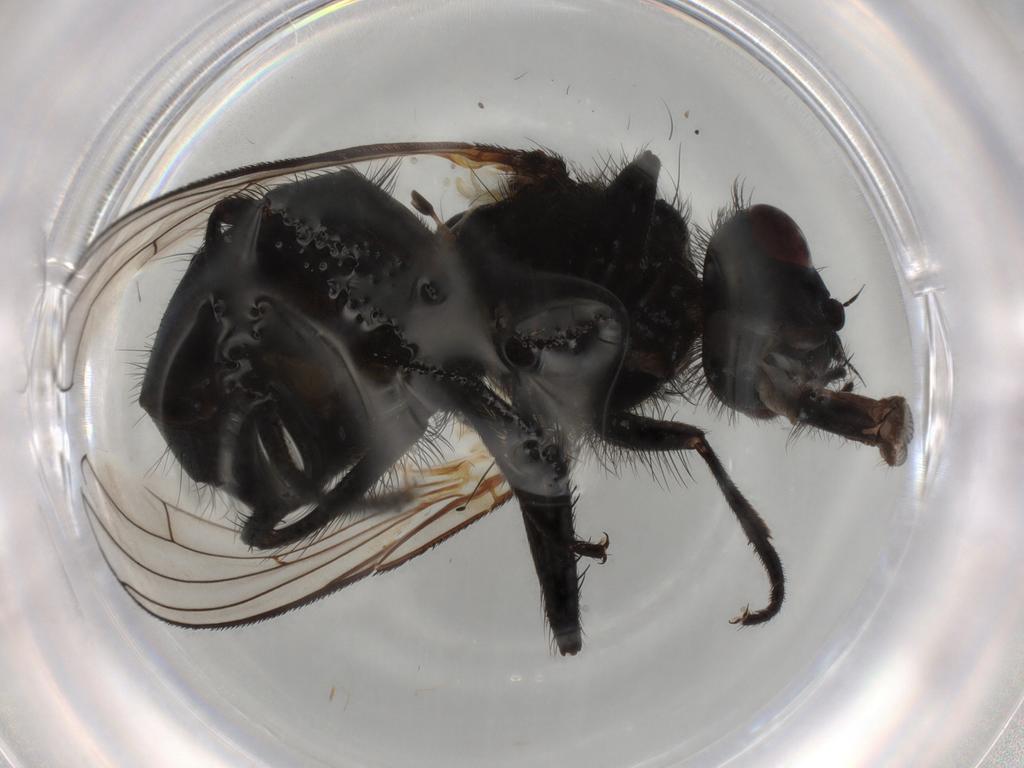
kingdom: Animalia
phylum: Arthropoda
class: Insecta
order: Diptera
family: Muscidae
